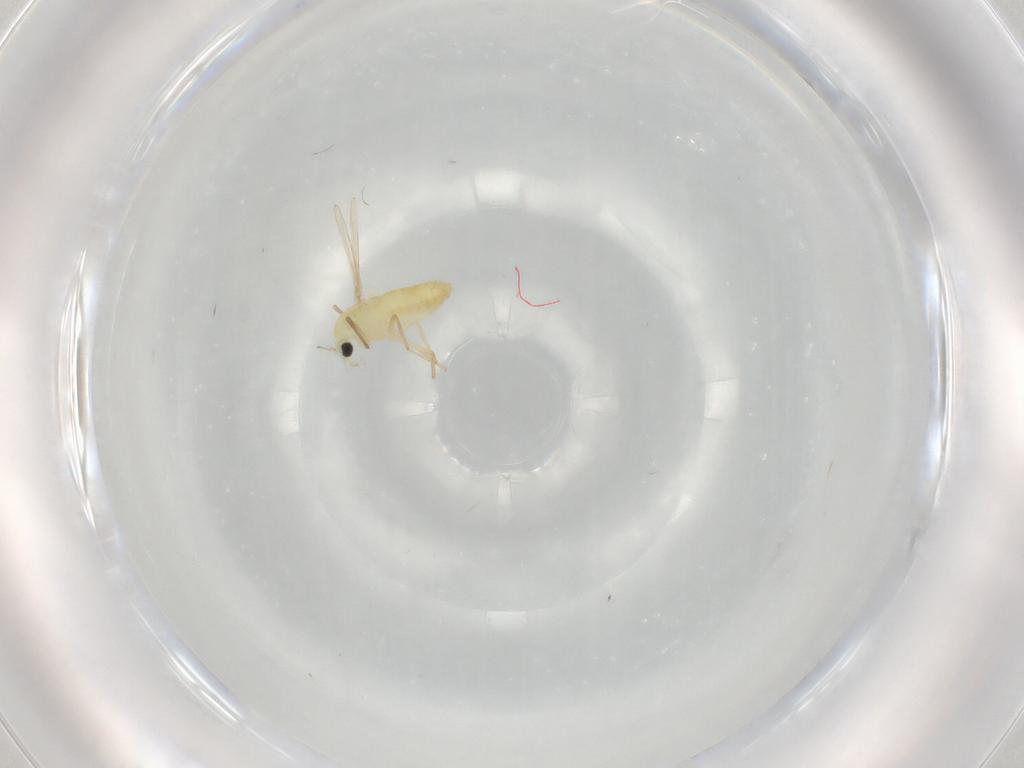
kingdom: Animalia
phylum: Arthropoda
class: Insecta
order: Diptera
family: Chironomidae
